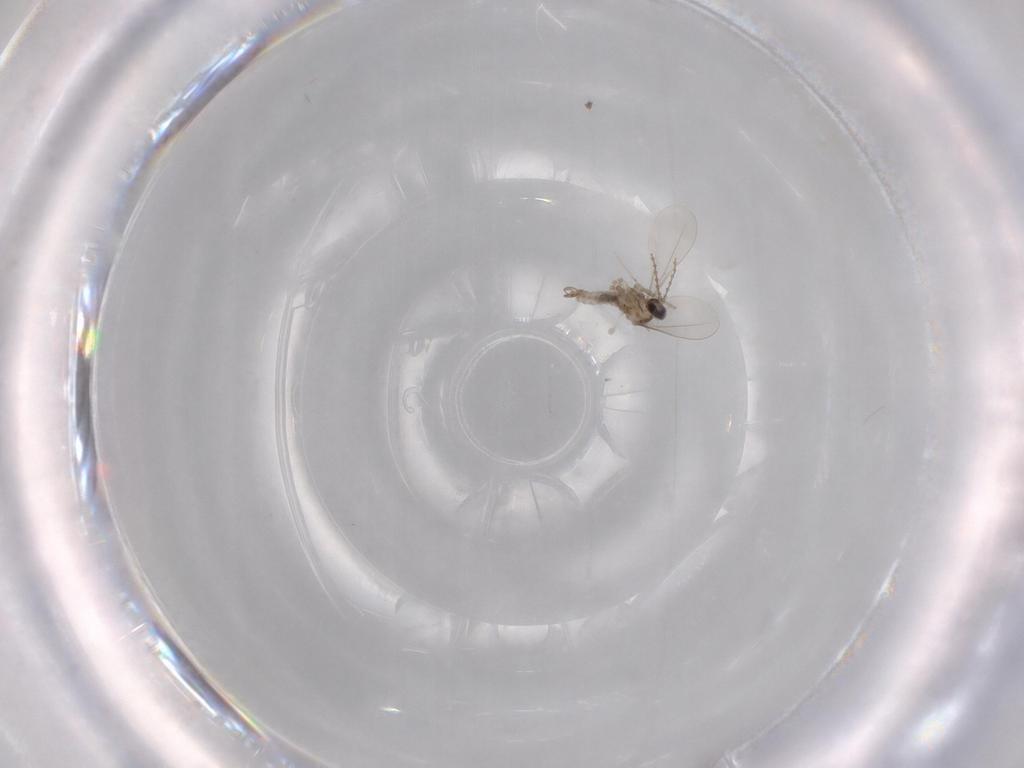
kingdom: Animalia
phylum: Arthropoda
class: Insecta
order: Diptera
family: Cecidomyiidae
